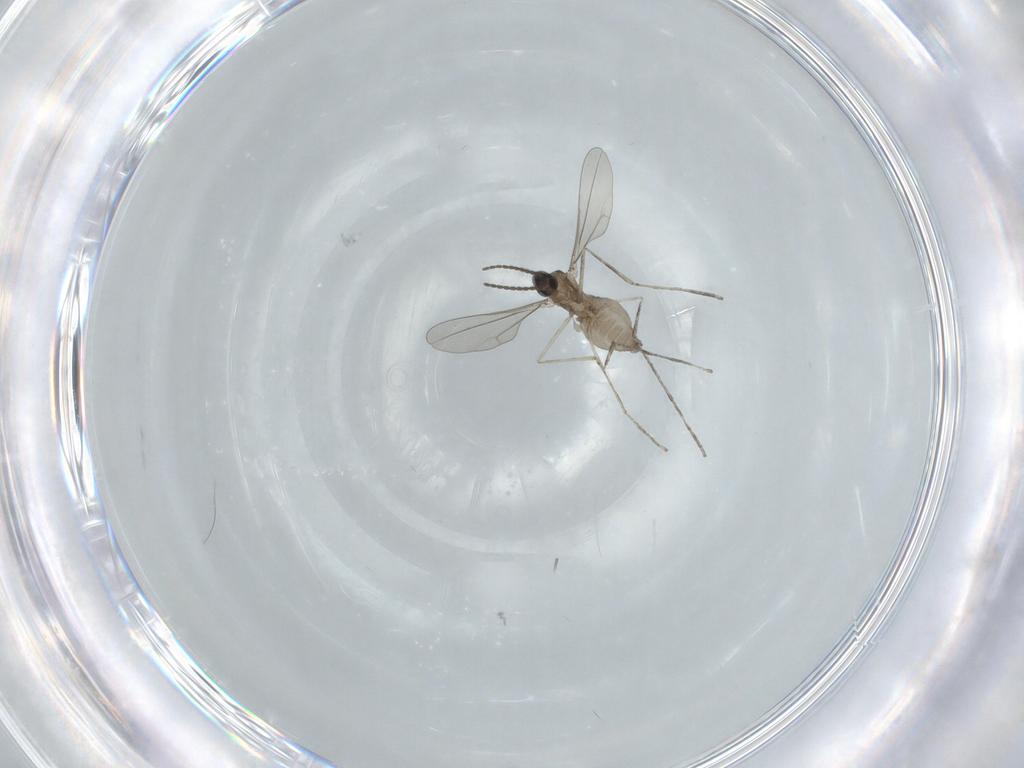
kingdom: Animalia
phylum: Arthropoda
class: Insecta
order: Diptera
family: Cecidomyiidae
